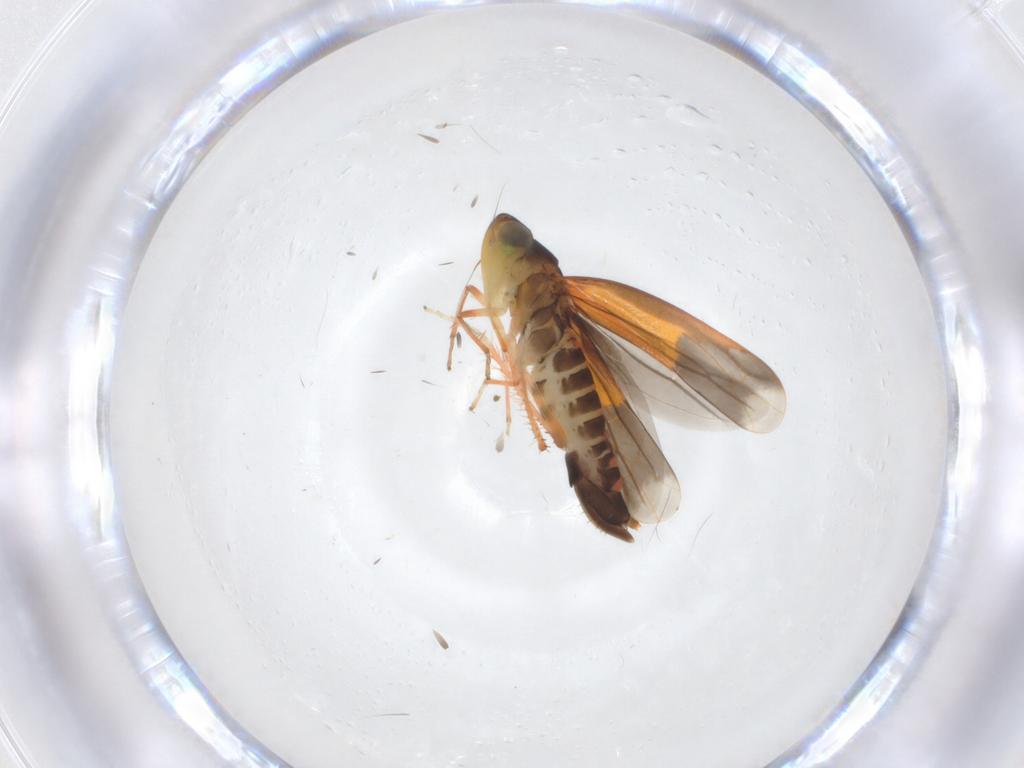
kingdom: Animalia
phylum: Arthropoda
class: Insecta
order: Hemiptera
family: Cicadellidae
